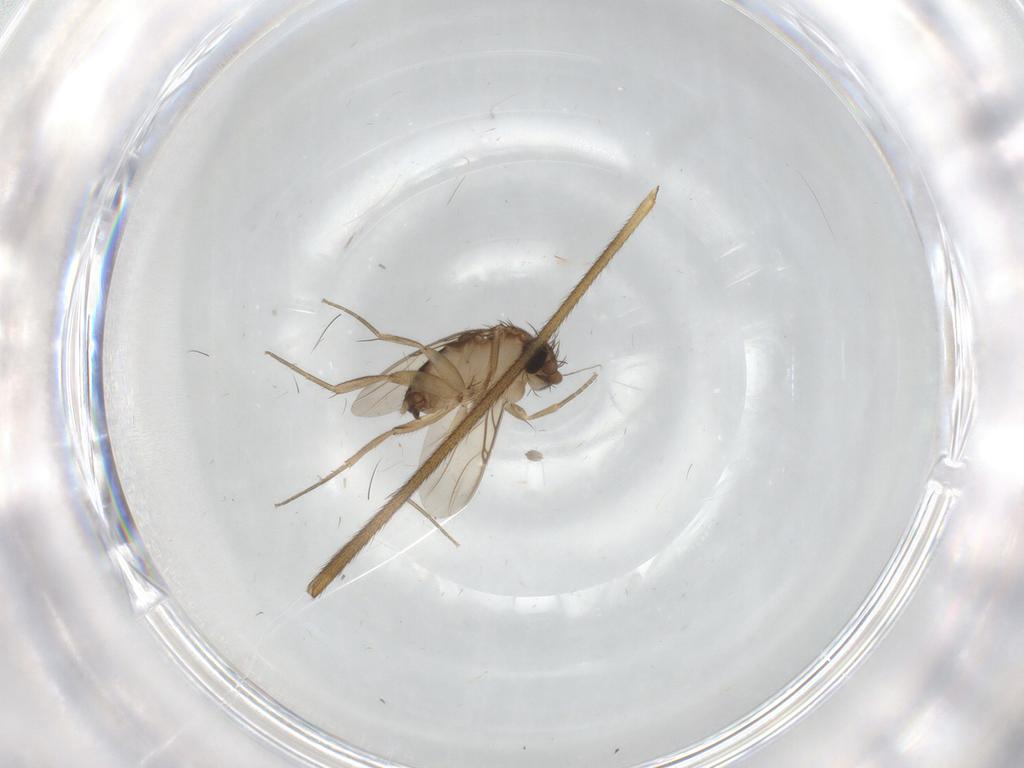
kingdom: Animalia
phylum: Arthropoda
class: Insecta
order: Diptera
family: Phoridae
